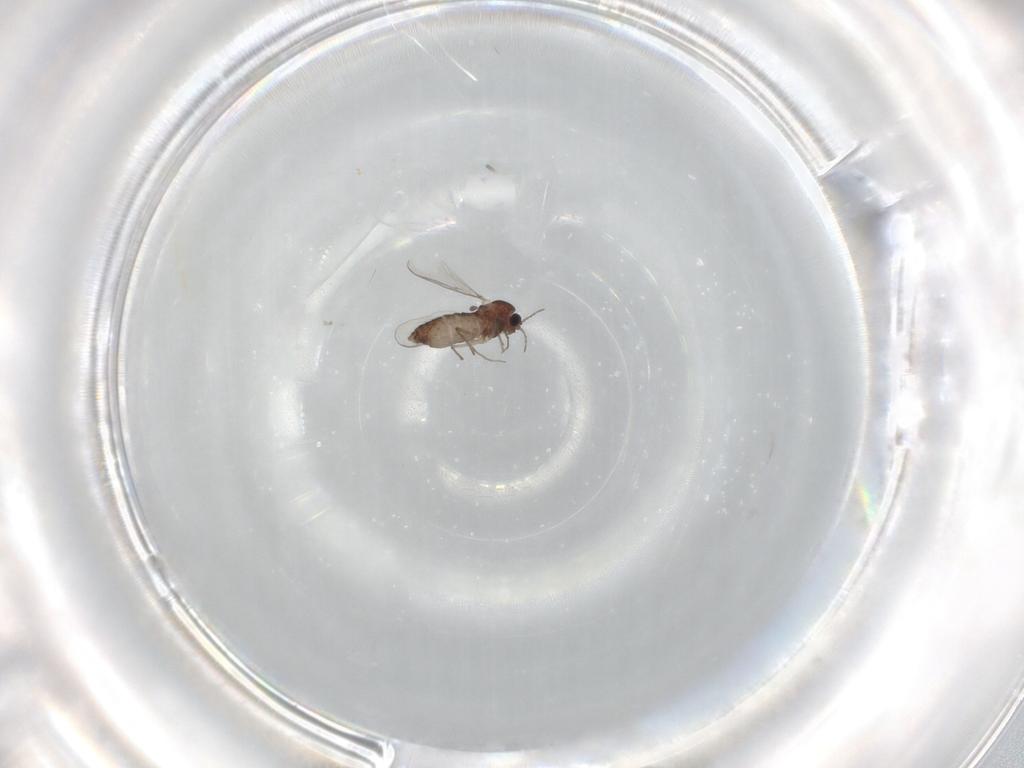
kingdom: Animalia
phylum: Arthropoda
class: Insecta
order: Diptera
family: Chironomidae
